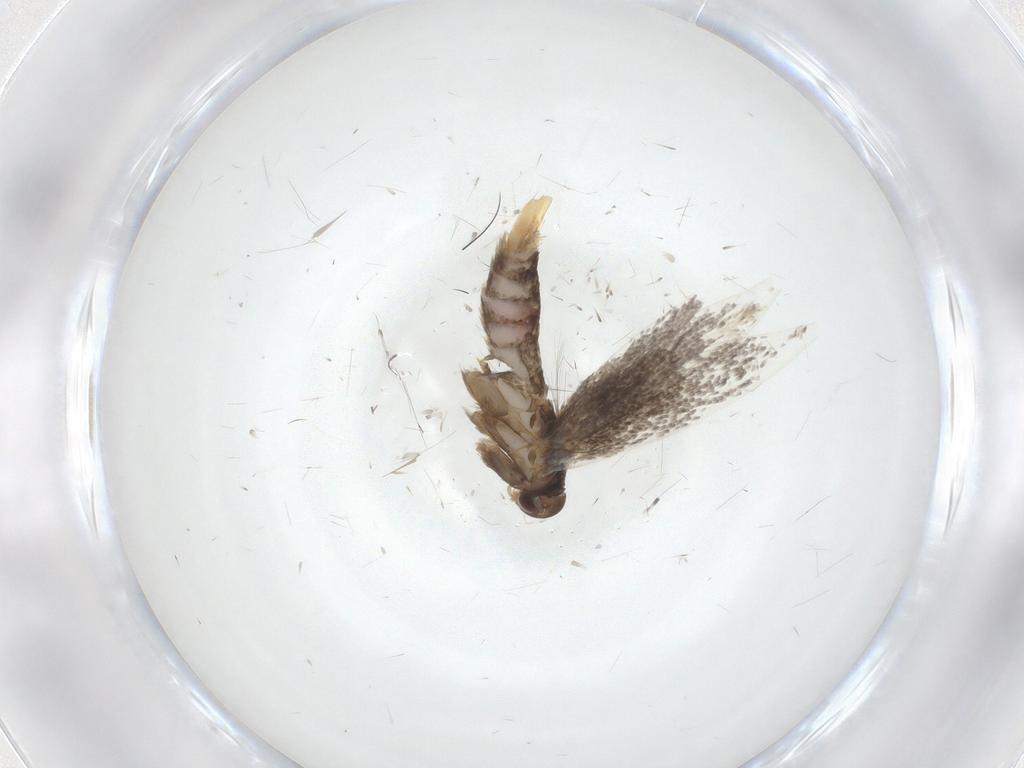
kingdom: Animalia
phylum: Arthropoda
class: Insecta
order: Lepidoptera
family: Elachistidae
